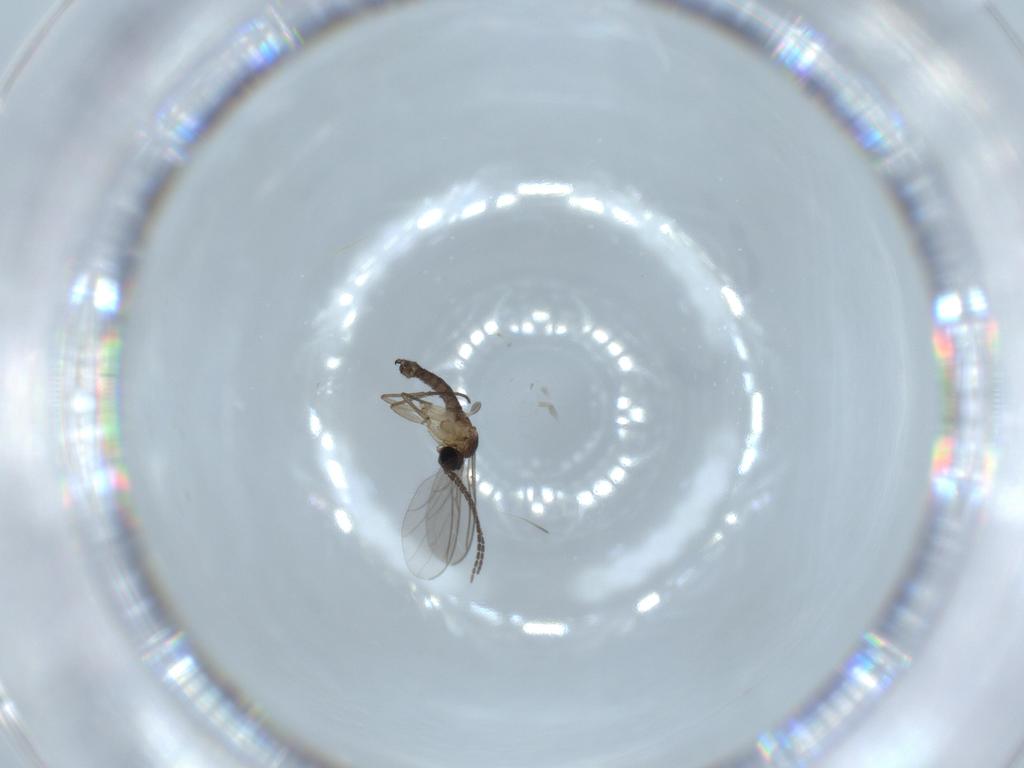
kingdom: Animalia
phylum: Arthropoda
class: Insecta
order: Diptera
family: Sciaridae
